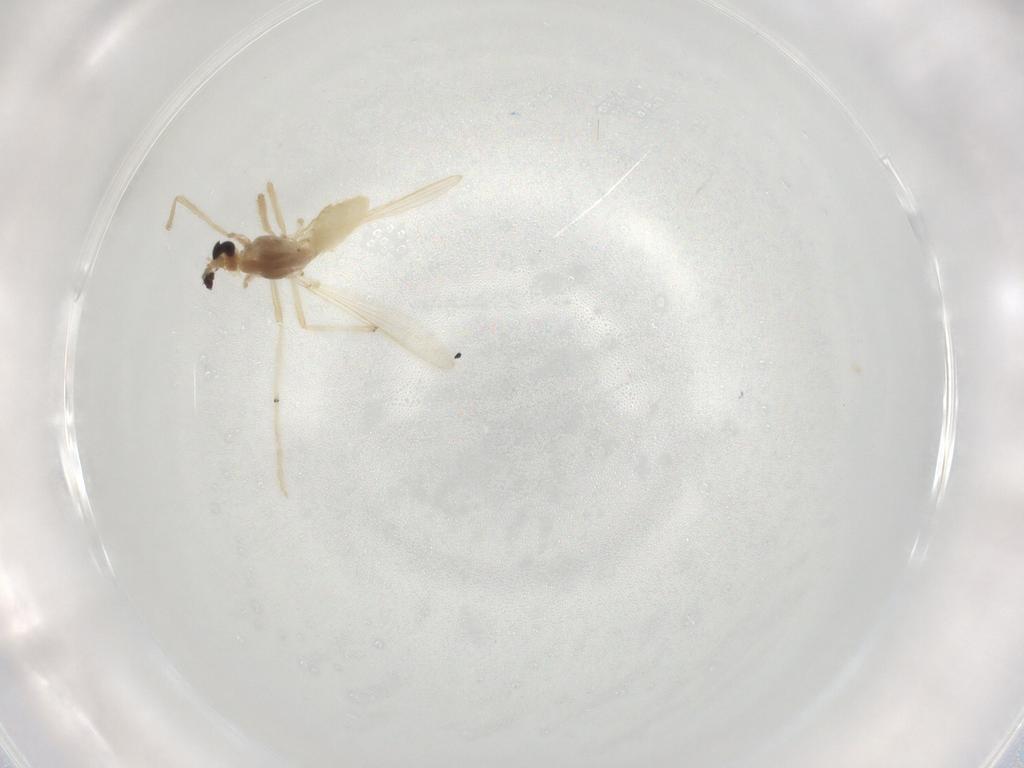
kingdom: Animalia
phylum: Arthropoda
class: Insecta
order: Diptera
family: Chironomidae
